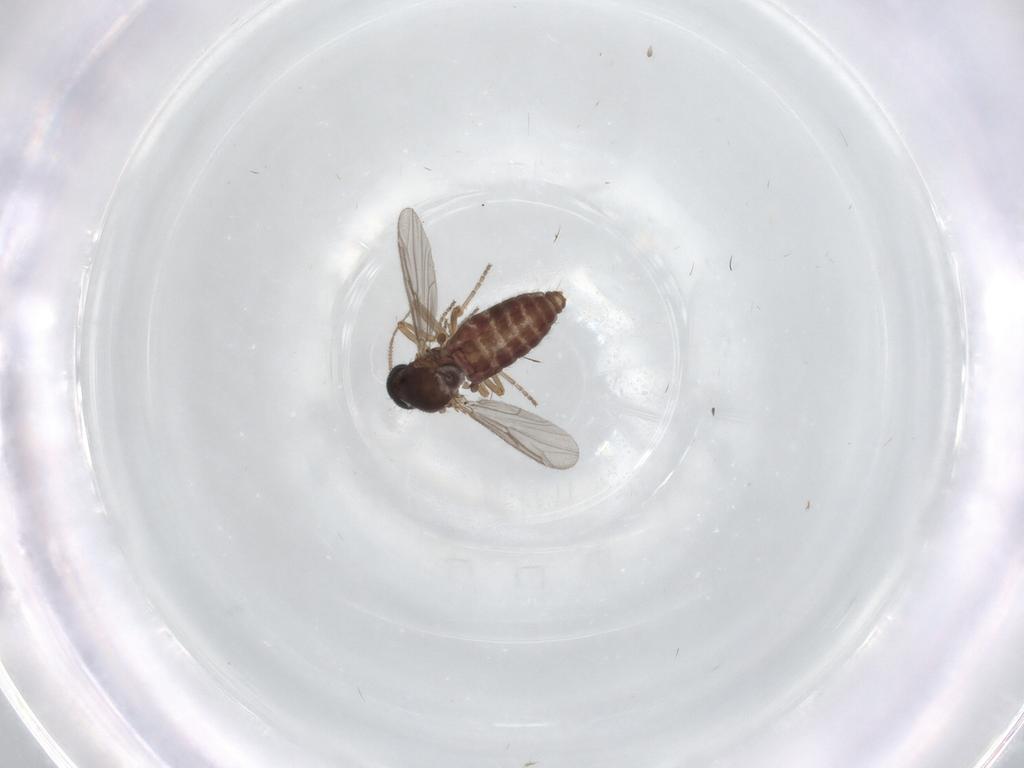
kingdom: Animalia
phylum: Arthropoda
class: Insecta
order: Diptera
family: Ceratopogonidae
